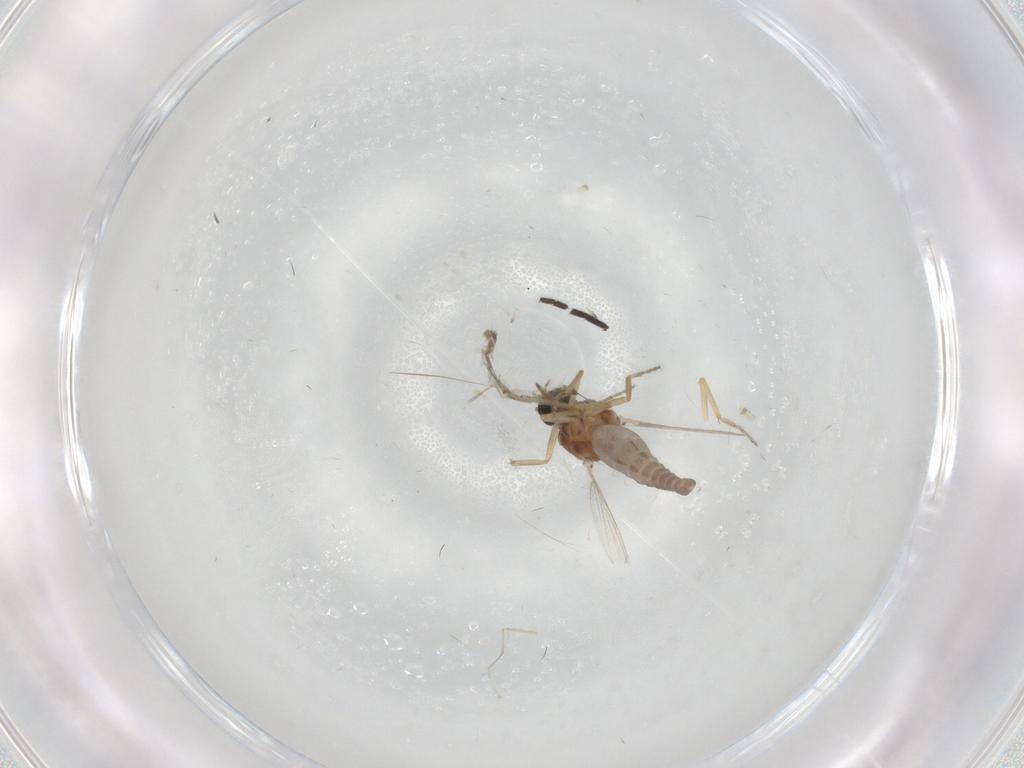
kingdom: Animalia
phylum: Arthropoda
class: Insecta
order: Diptera
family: Ceratopogonidae
